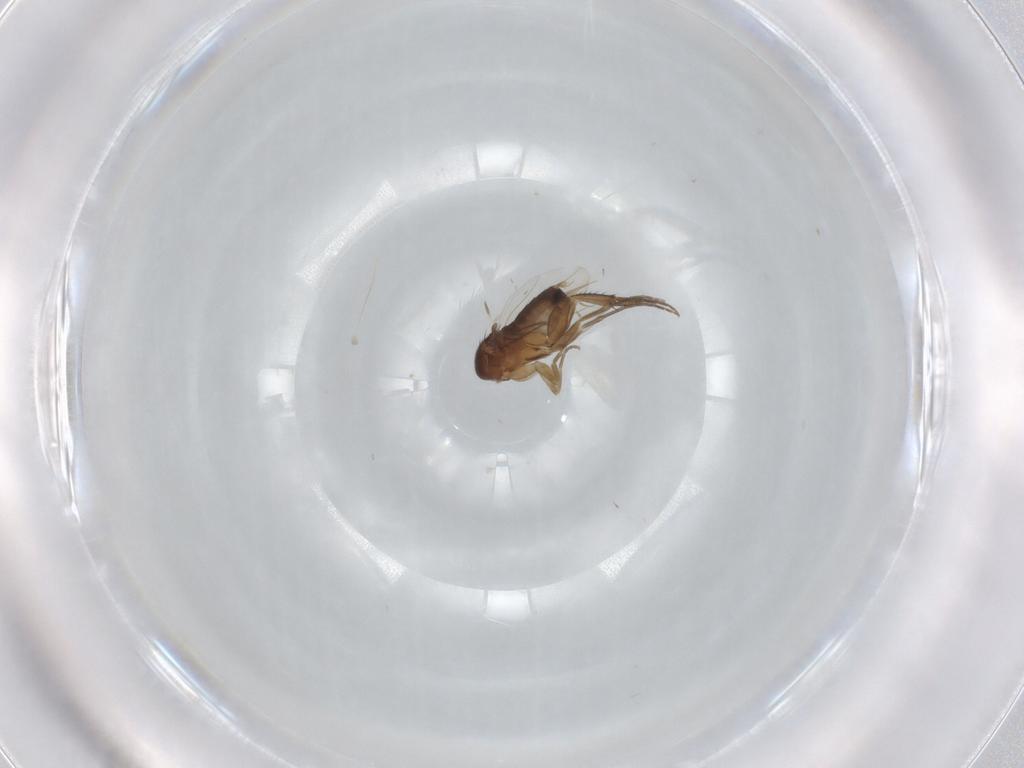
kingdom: Animalia
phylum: Arthropoda
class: Insecta
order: Diptera
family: Phoridae
